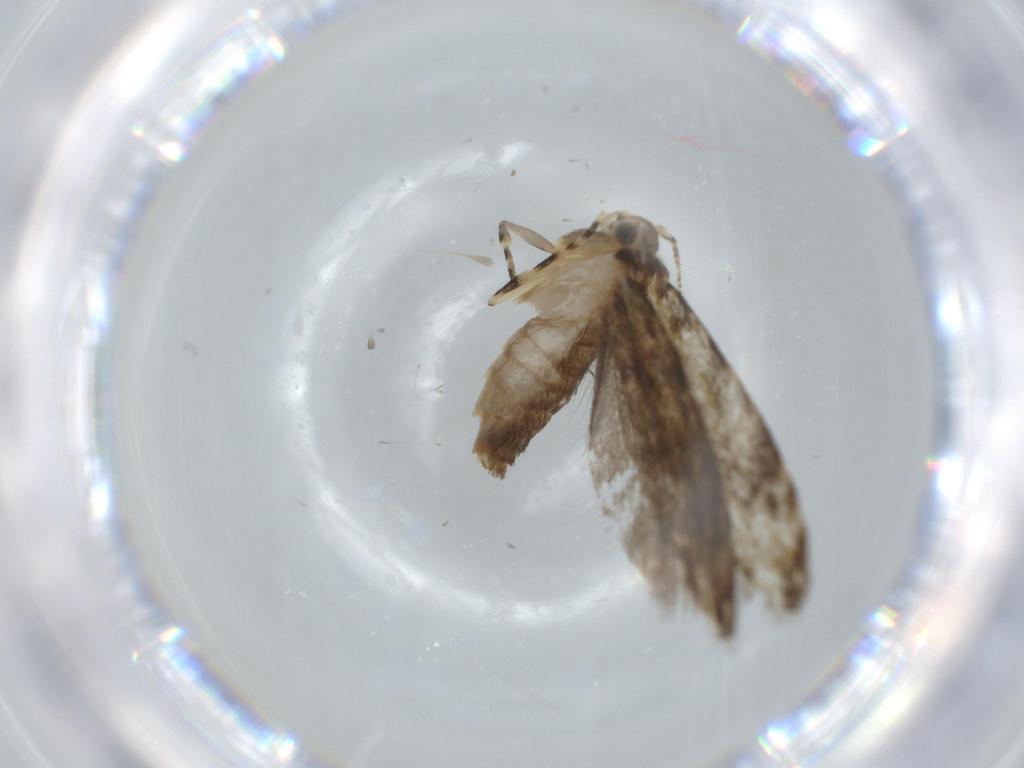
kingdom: Animalia
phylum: Arthropoda
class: Insecta
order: Lepidoptera
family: Tineidae
